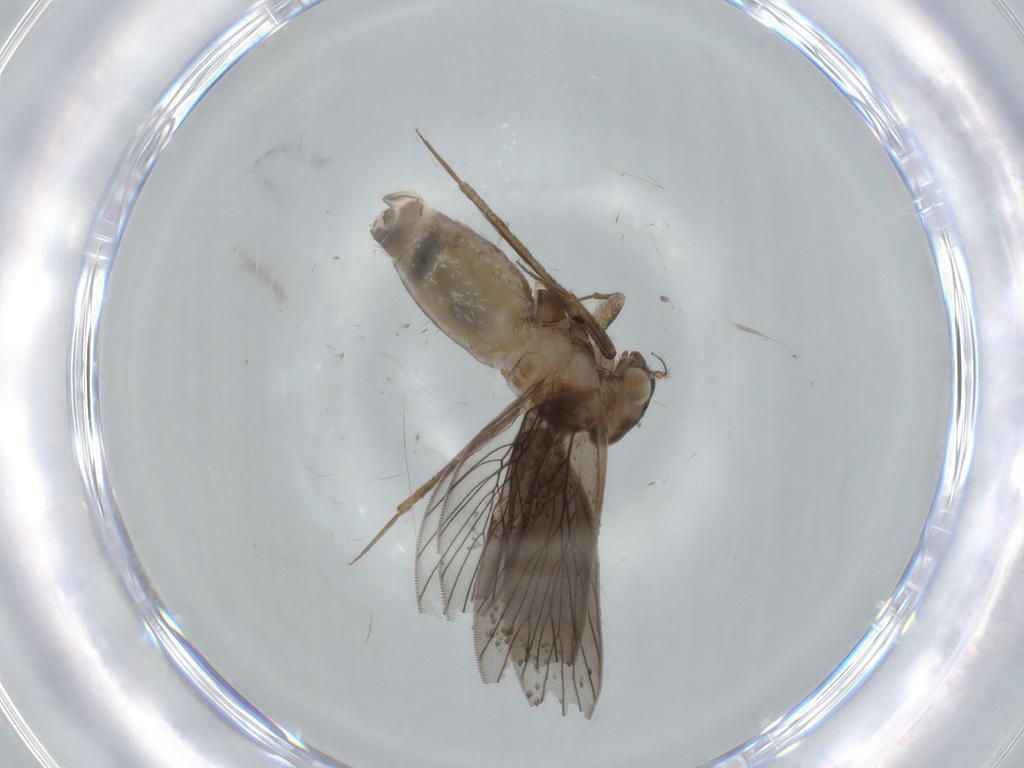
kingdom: Animalia
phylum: Arthropoda
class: Insecta
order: Psocodea
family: Lepidopsocidae
